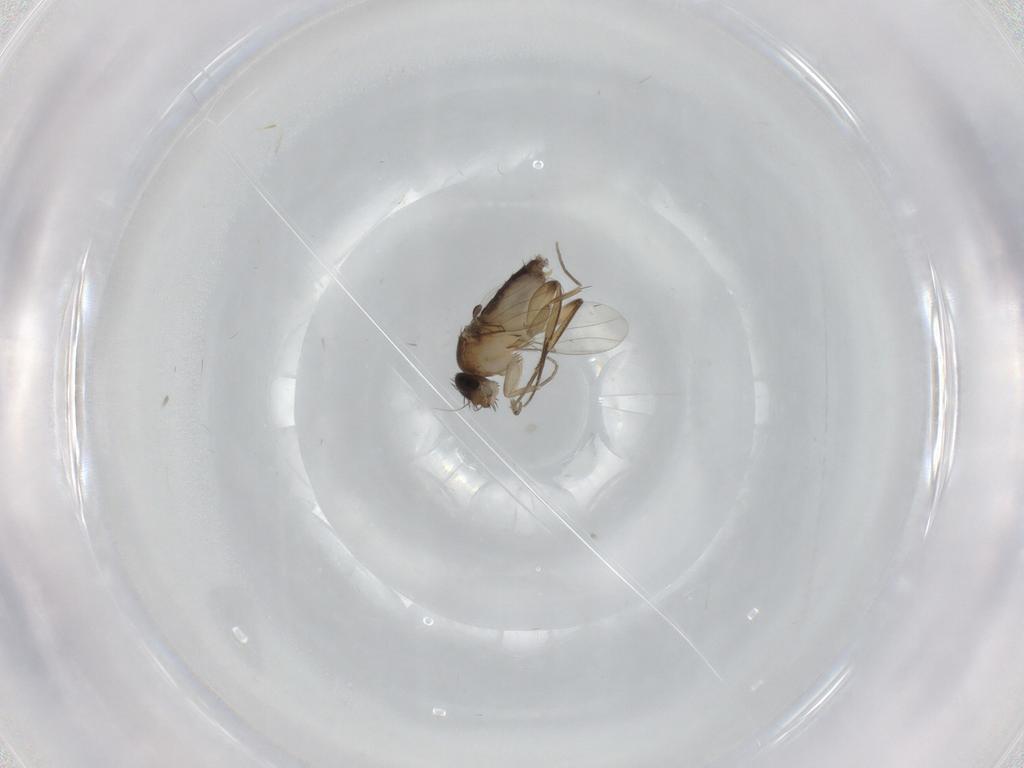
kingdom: Animalia
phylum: Arthropoda
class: Insecta
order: Diptera
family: Phoridae
